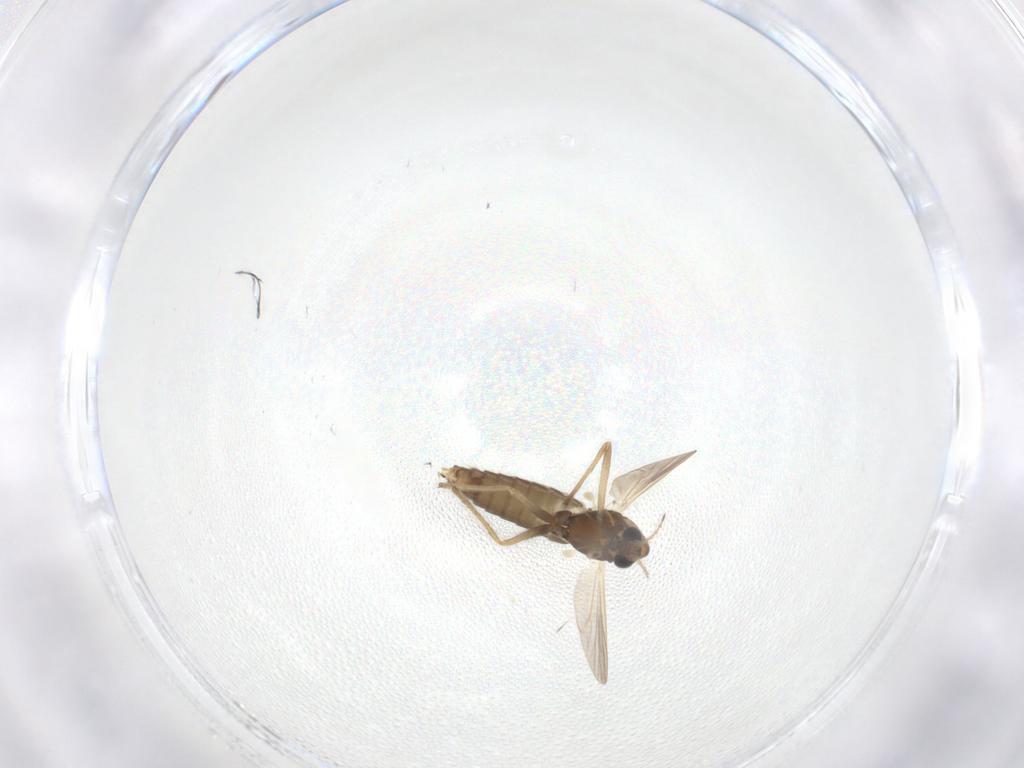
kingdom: Animalia
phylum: Arthropoda
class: Insecta
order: Diptera
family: Chironomidae
